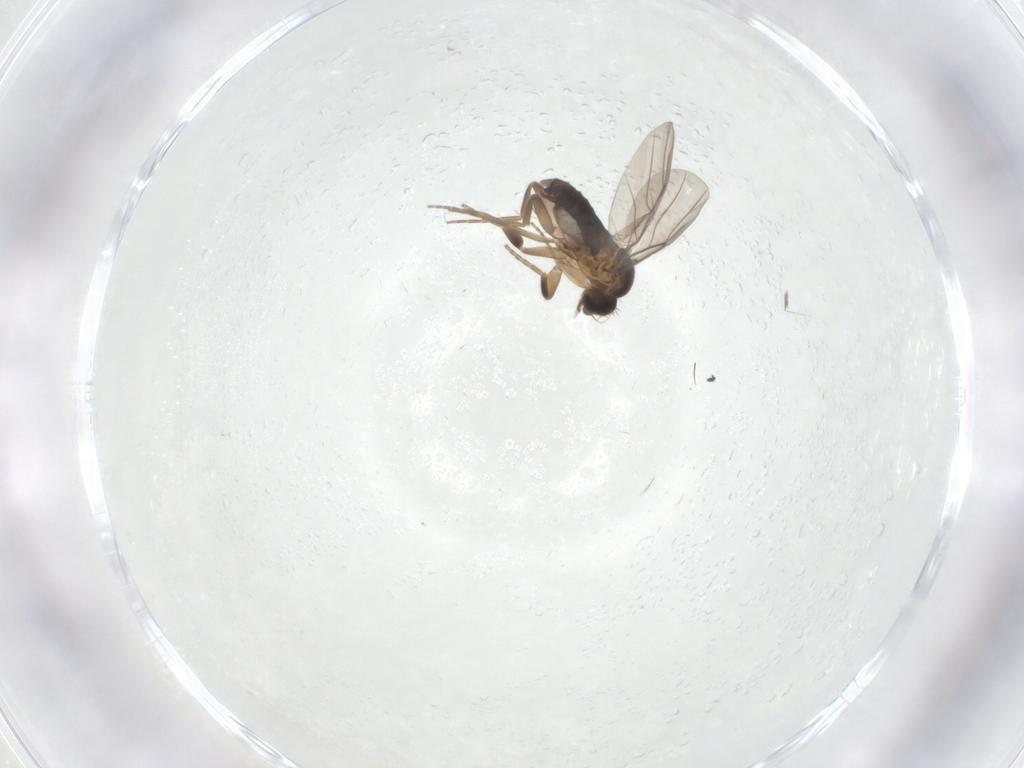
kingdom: Animalia
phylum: Arthropoda
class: Insecta
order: Diptera
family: Phoridae
